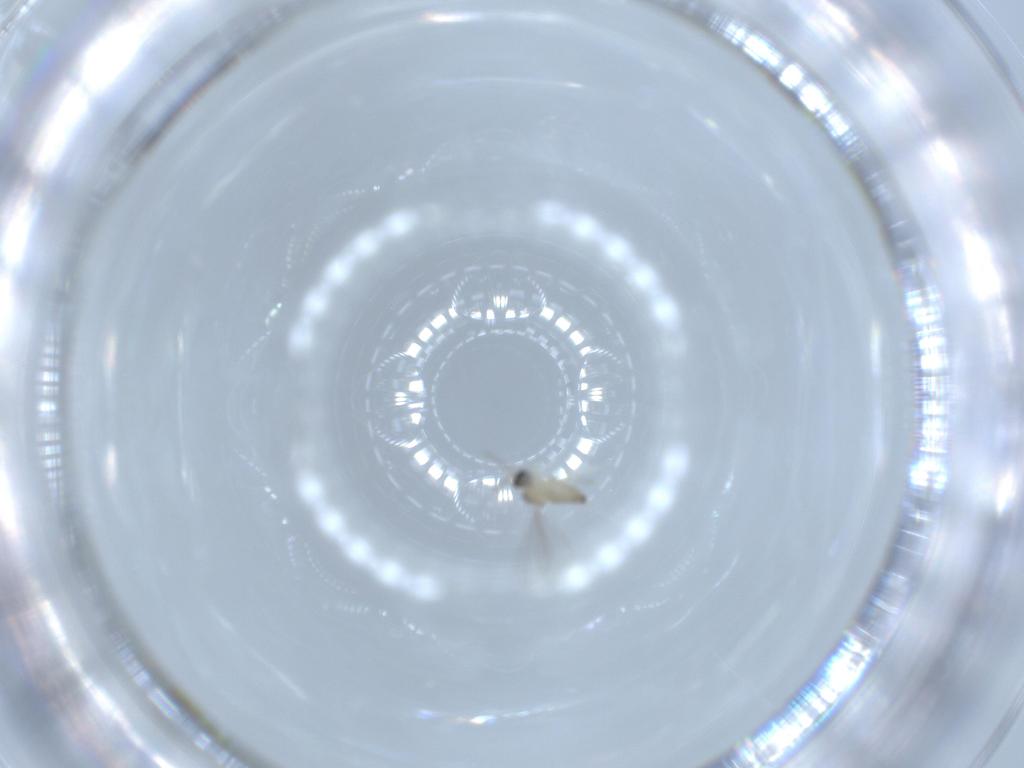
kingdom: Animalia
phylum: Arthropoda
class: Insecta
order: Diptera
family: Cecidomyiidae
